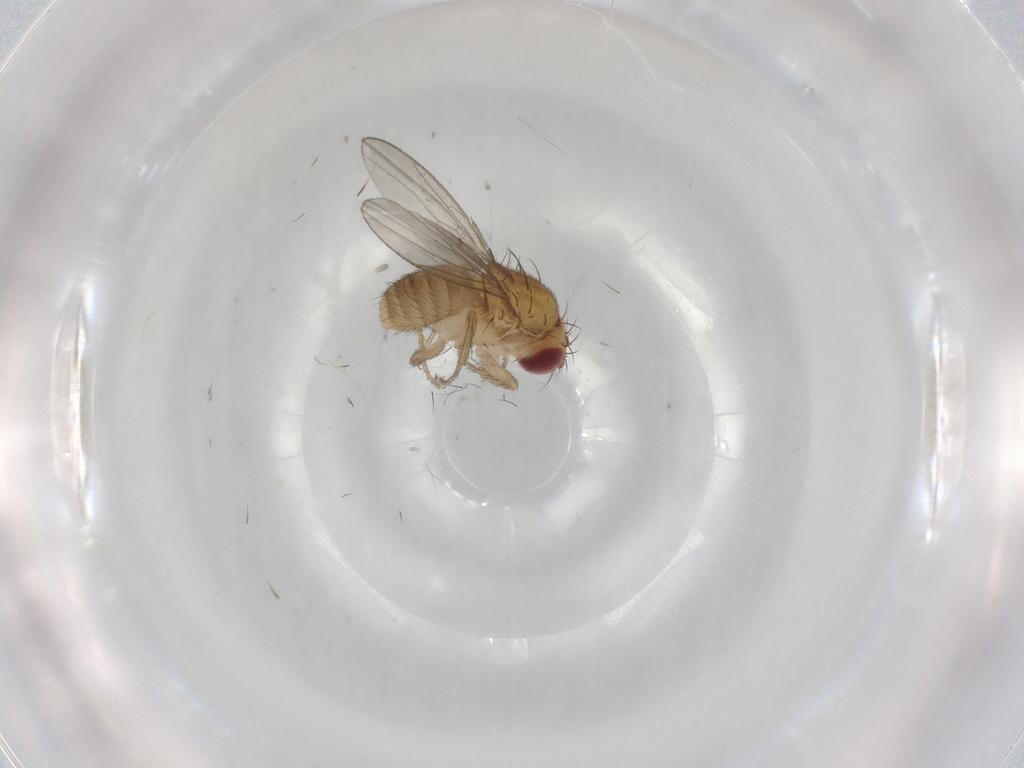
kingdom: Animalia
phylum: Arthropoda
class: Insecta
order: Diptera
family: Drosophilidae
